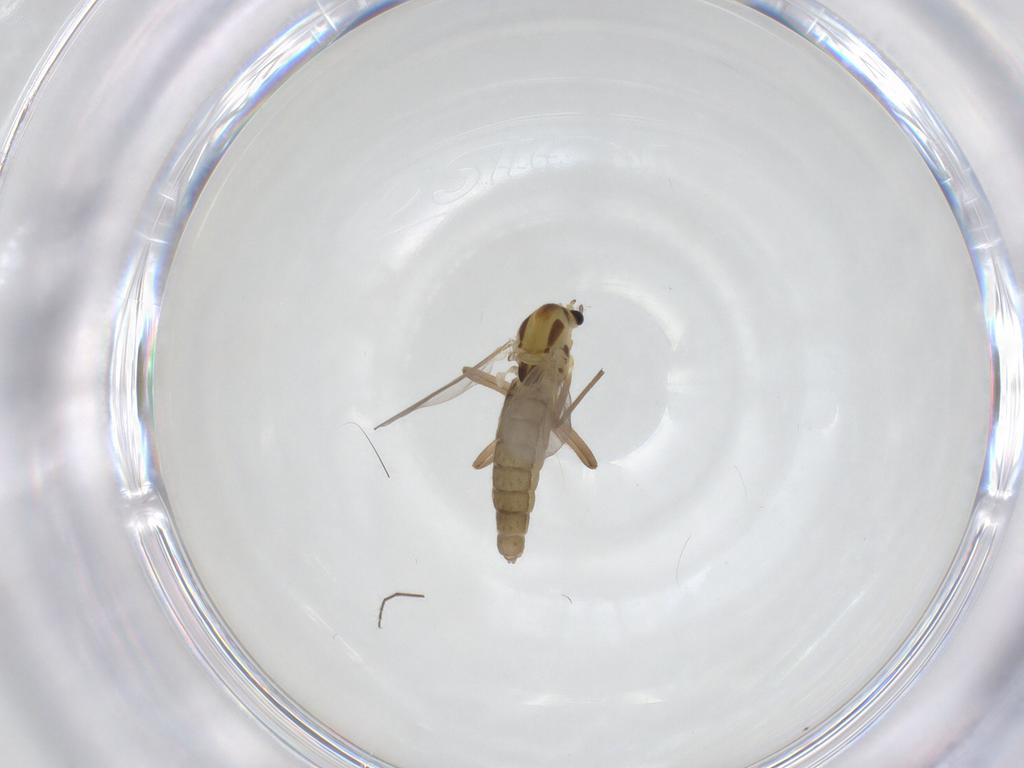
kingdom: Animalia
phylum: Arthropoda
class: Insecta
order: Diptera
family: Chironomidae
